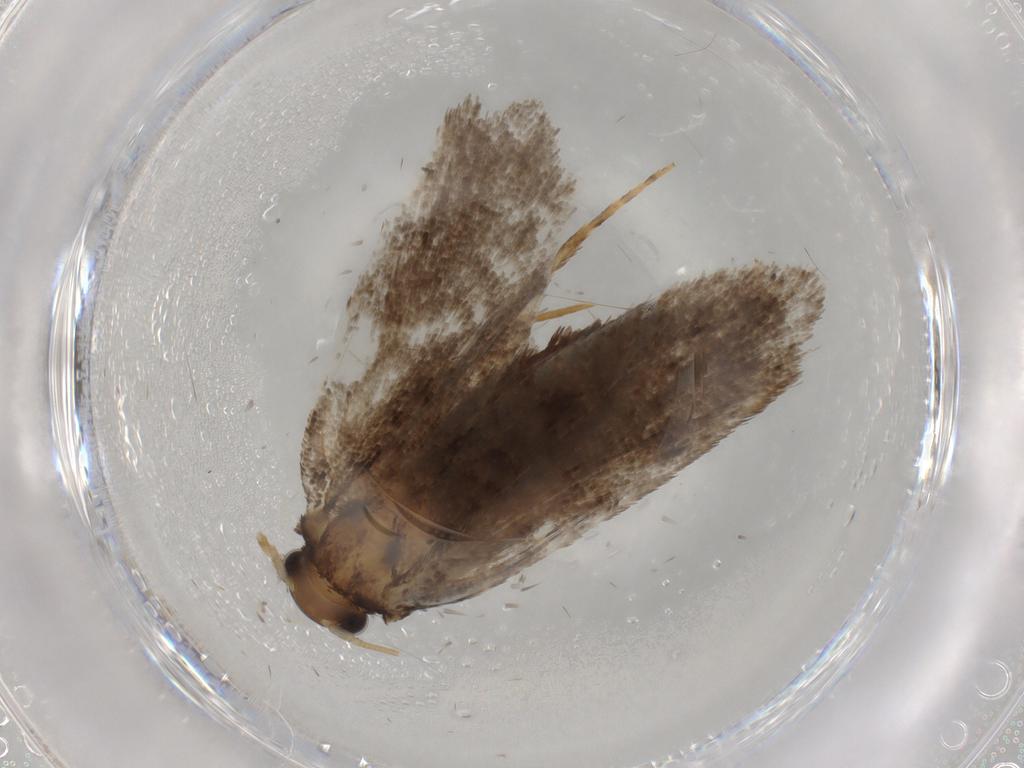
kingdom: Animalia
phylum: Arthropoda
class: Insecta
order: Lepidoptera
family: Tineidae
